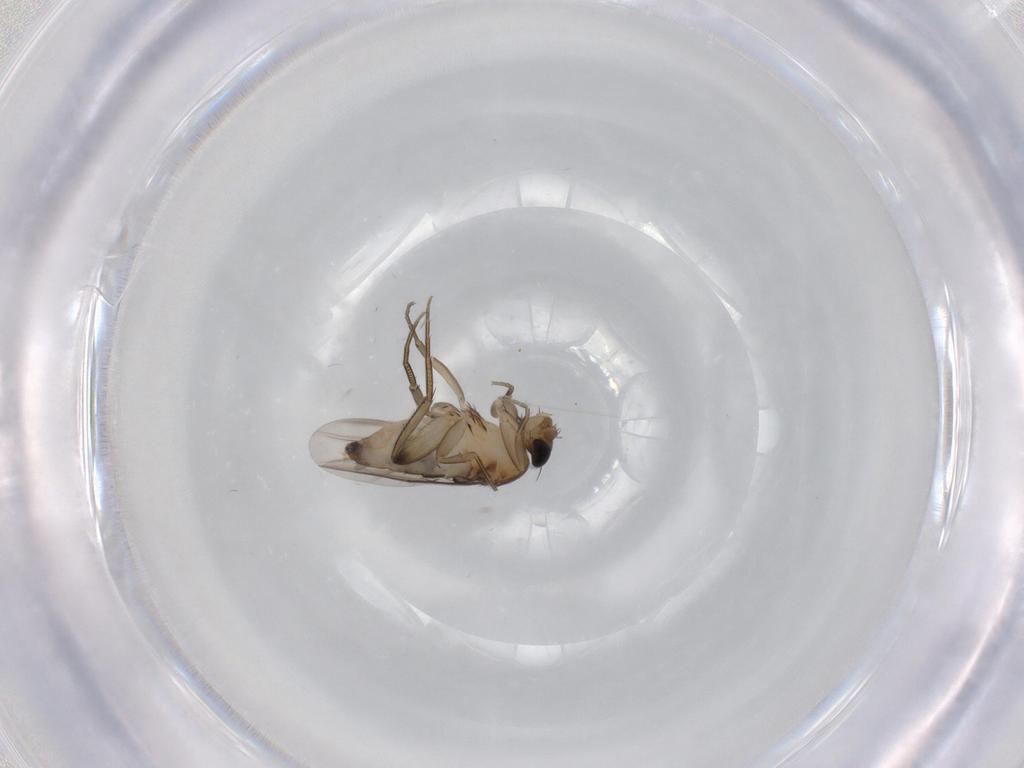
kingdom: Animalia
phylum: Arthropoda
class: Insecta
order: Diptera
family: Phoridae
